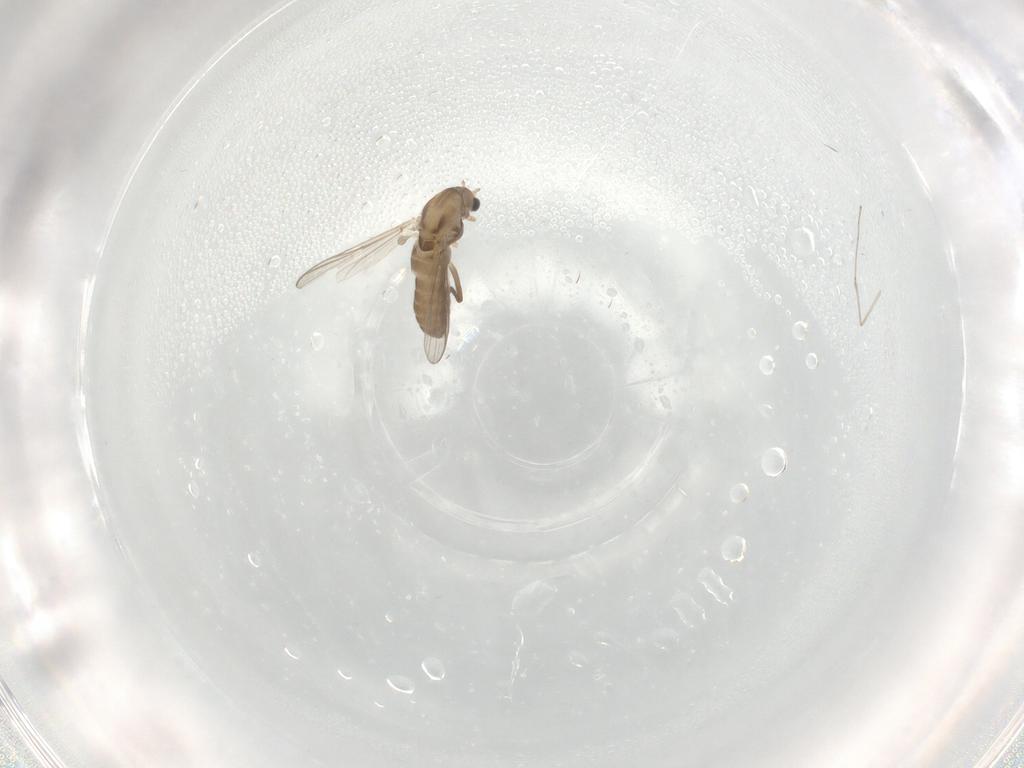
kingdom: Animalia
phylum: Arthropoda
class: Insecta
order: Diptera
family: Chironomidae
